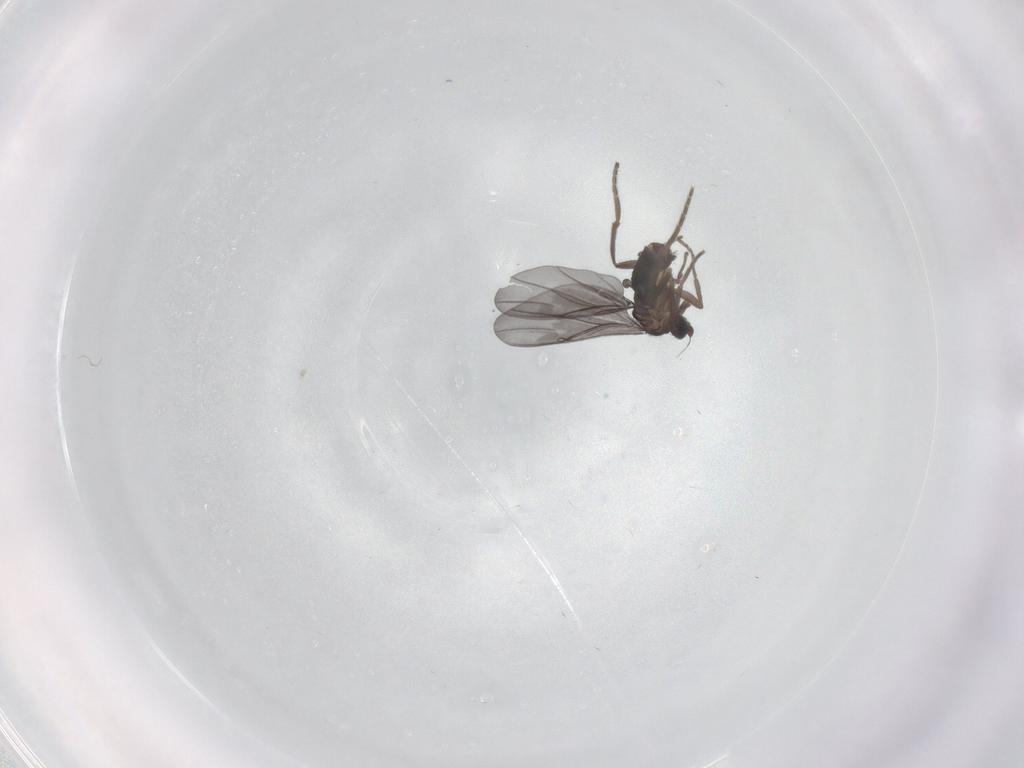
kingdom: Animalia
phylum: Arthropoda
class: Insecta
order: Diptera
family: Phoridae
